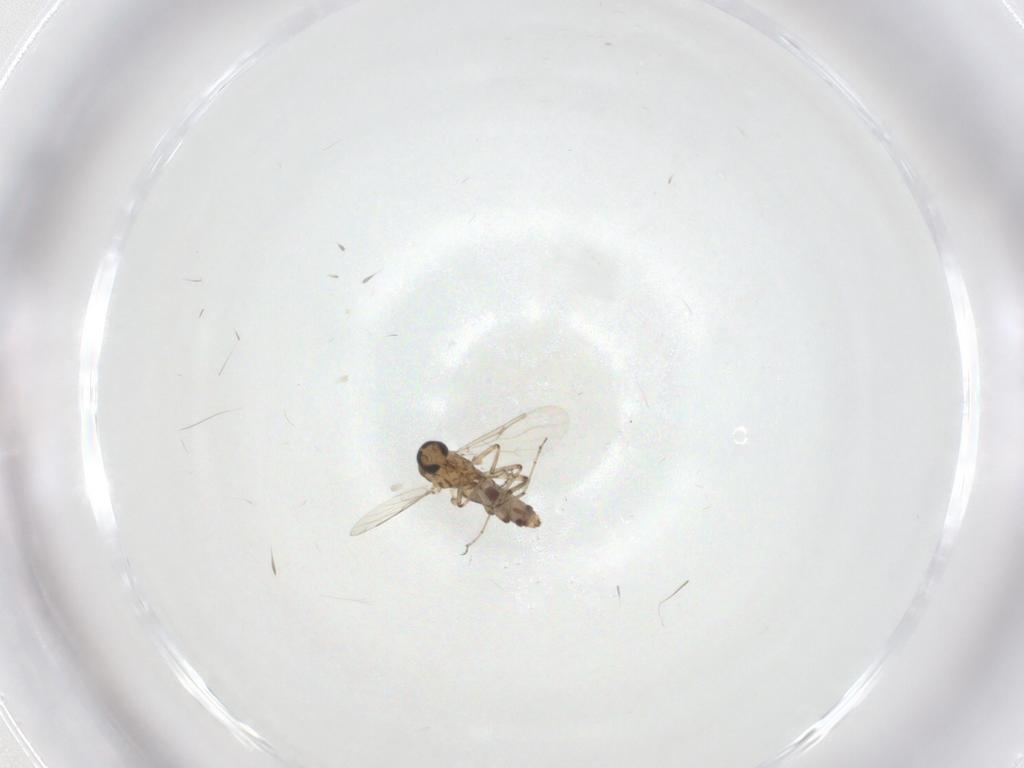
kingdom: Animalia
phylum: Arthropoda
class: Insecta
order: Diptera
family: Ceratopogonidae
